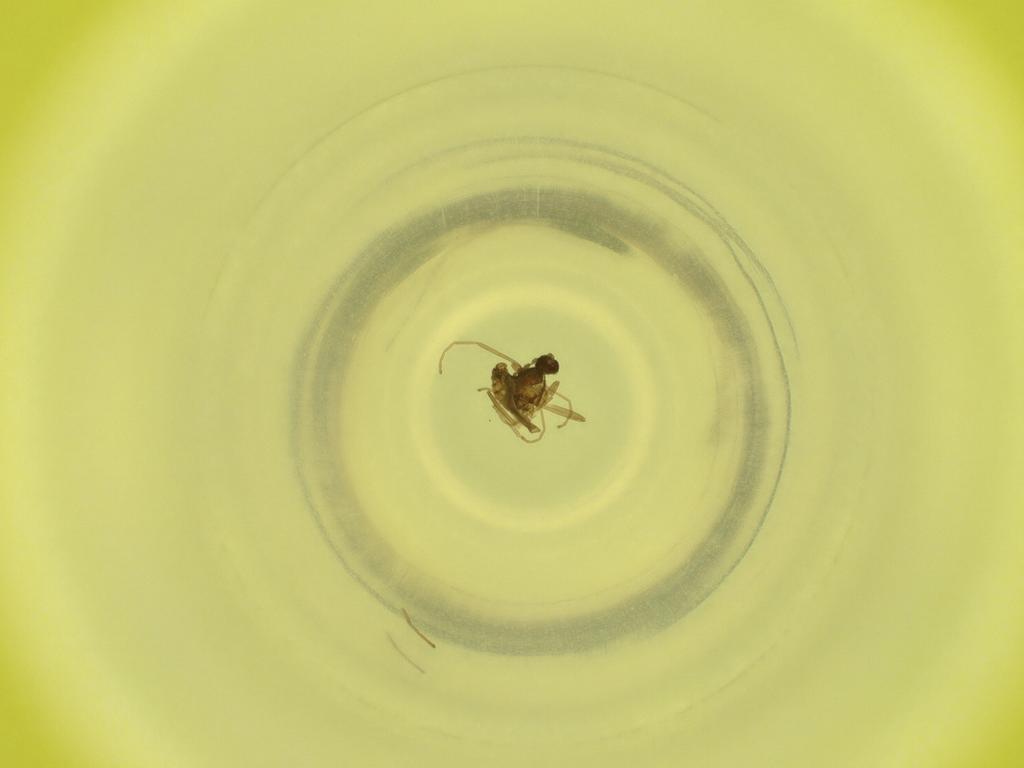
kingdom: Animalia
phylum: Arthropoda
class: Insecta
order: Diptera
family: Cecidomyiidae
